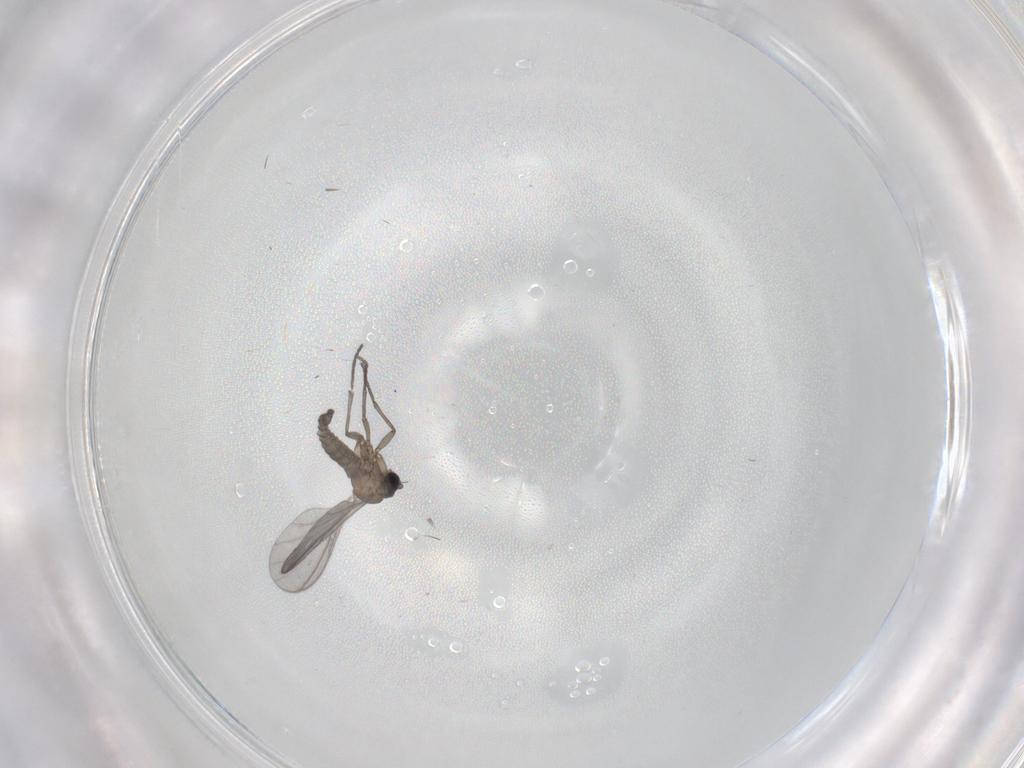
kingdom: Animalia
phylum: Arthropoda
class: Insecta
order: Diptera
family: Sciaridae
